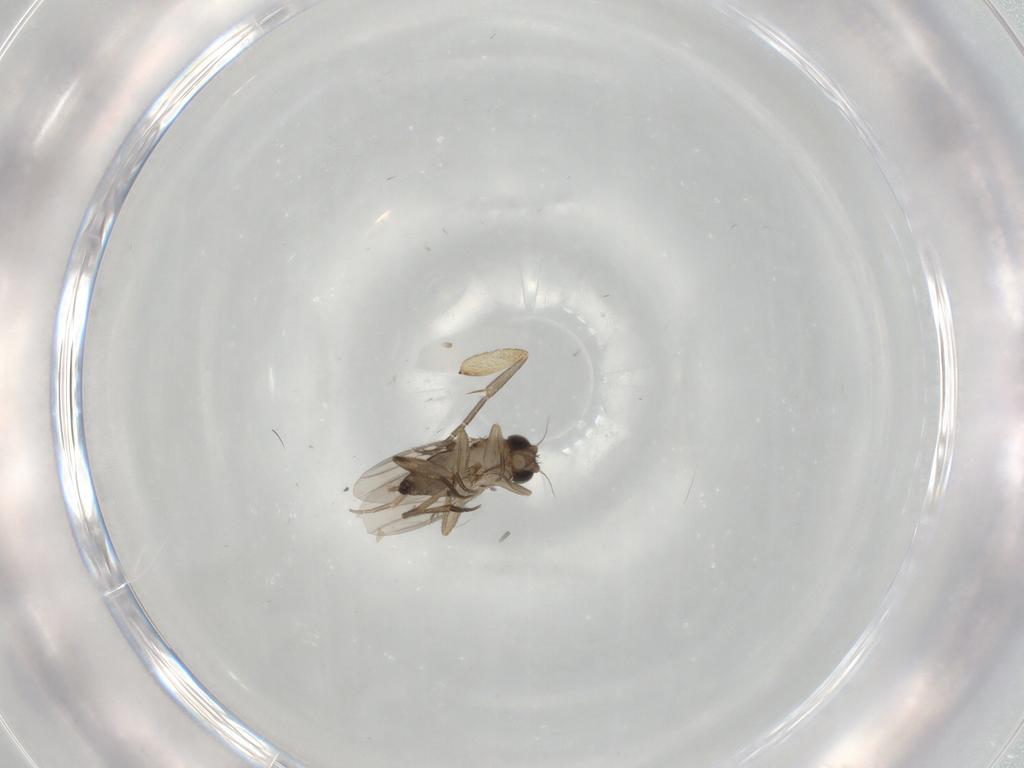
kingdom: Animalia
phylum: Arthropoda
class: Insecta
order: Diptera
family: Phoridae
